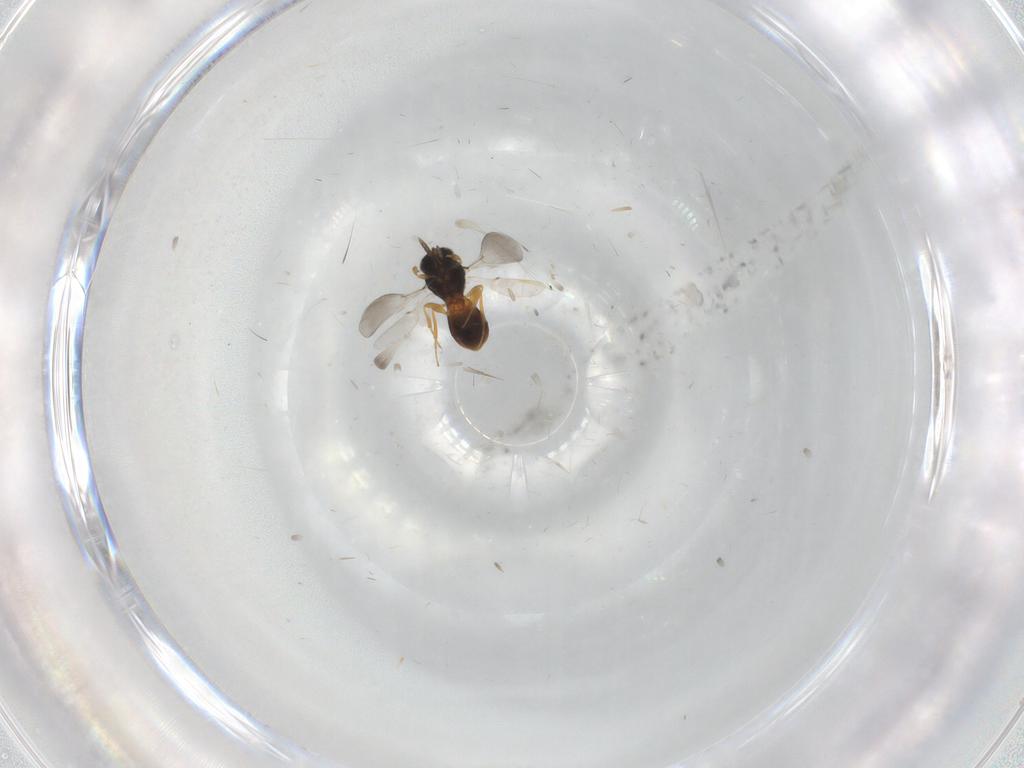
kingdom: Animalia
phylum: Arthropoda
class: Insecta
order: Hymenoptera
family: Platygastridae
